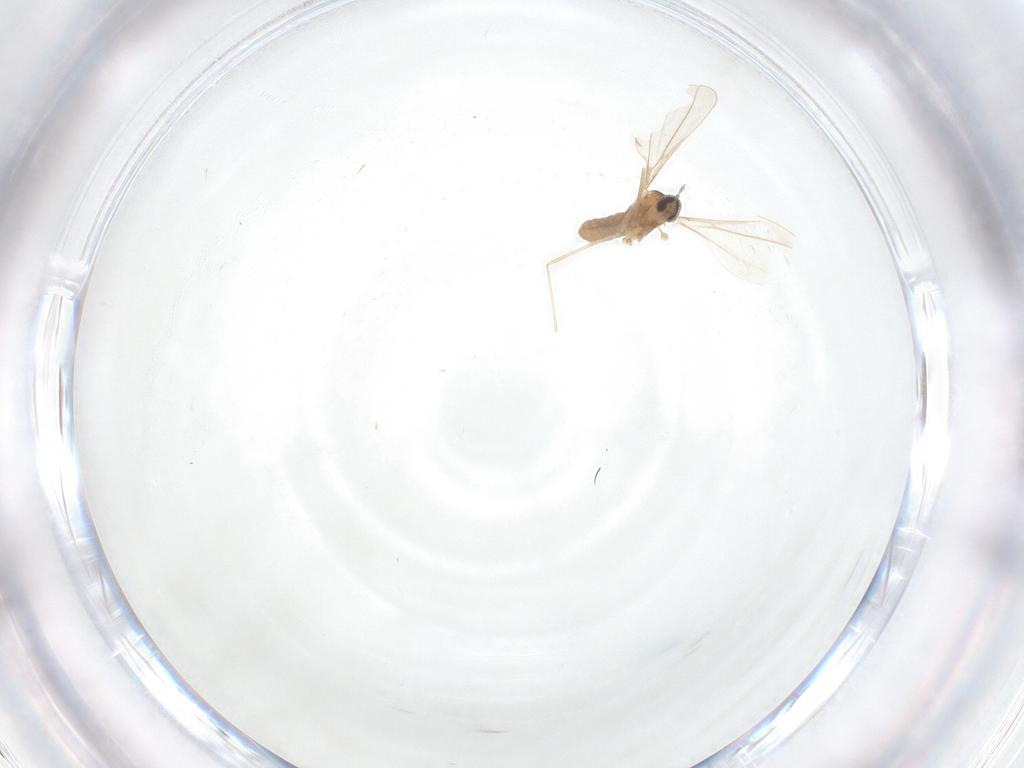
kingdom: Animalia
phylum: Arthropoda
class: Insecta
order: Diptera
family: Cecidomyiidae
